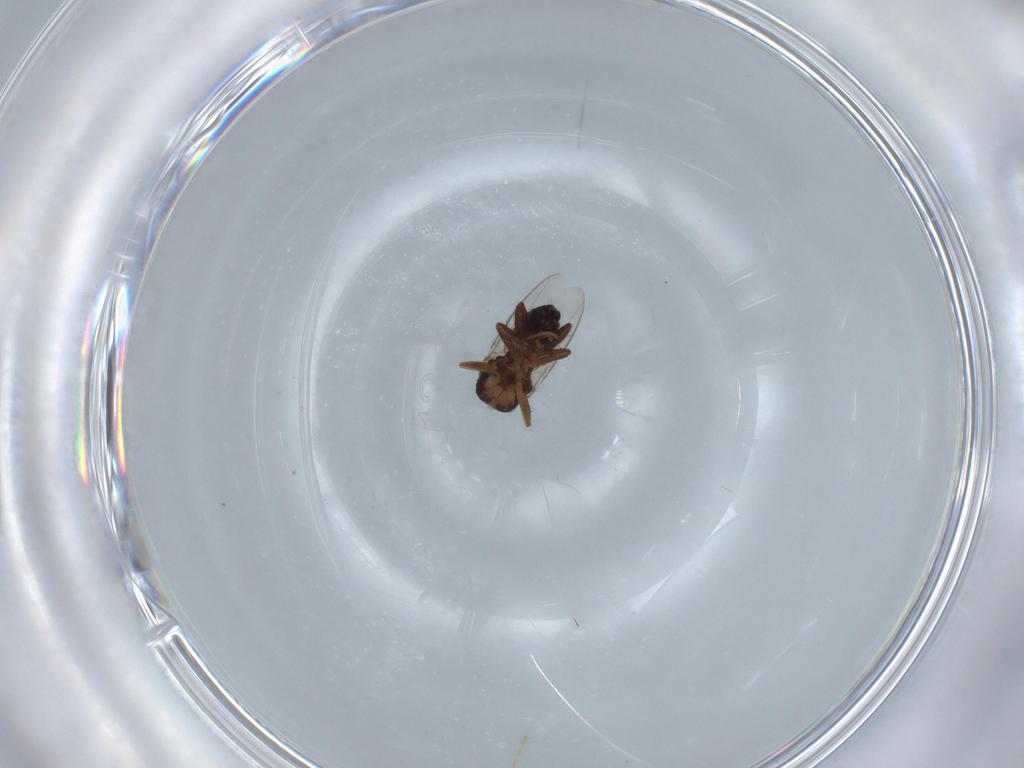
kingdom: Animalia
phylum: Arthropoda
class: Insecta
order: Diptera
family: Sphaeroceridae
